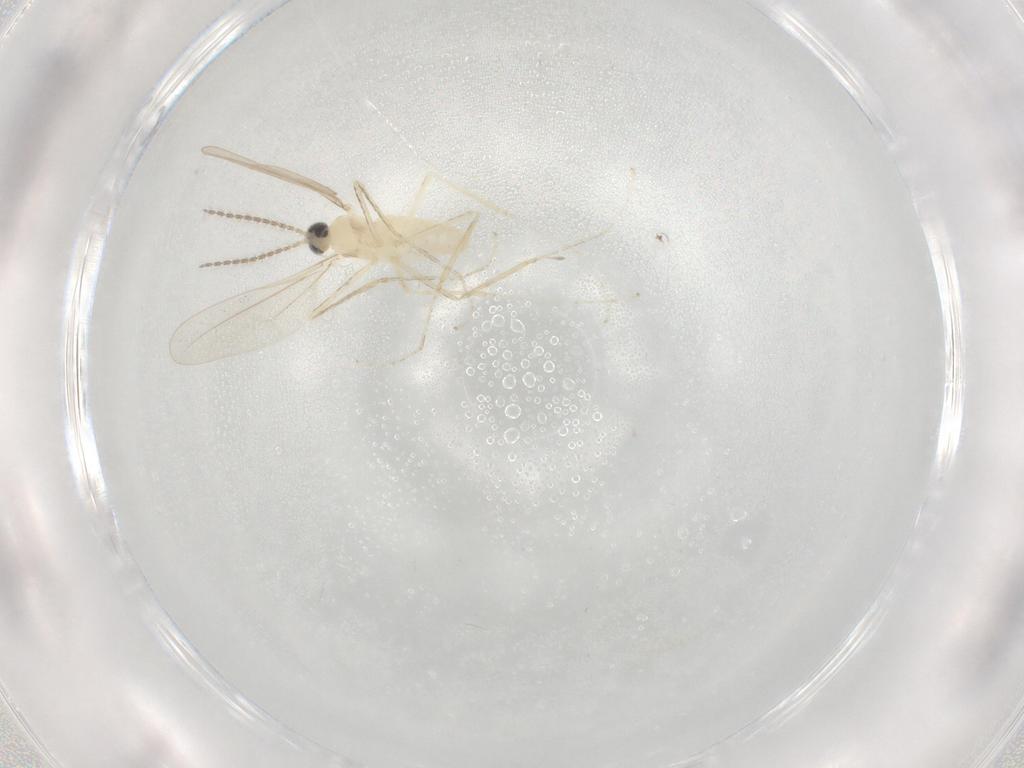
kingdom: Animalia
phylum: Arthropoda
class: Insecta
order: Diptera
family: Cecidomyiidae
